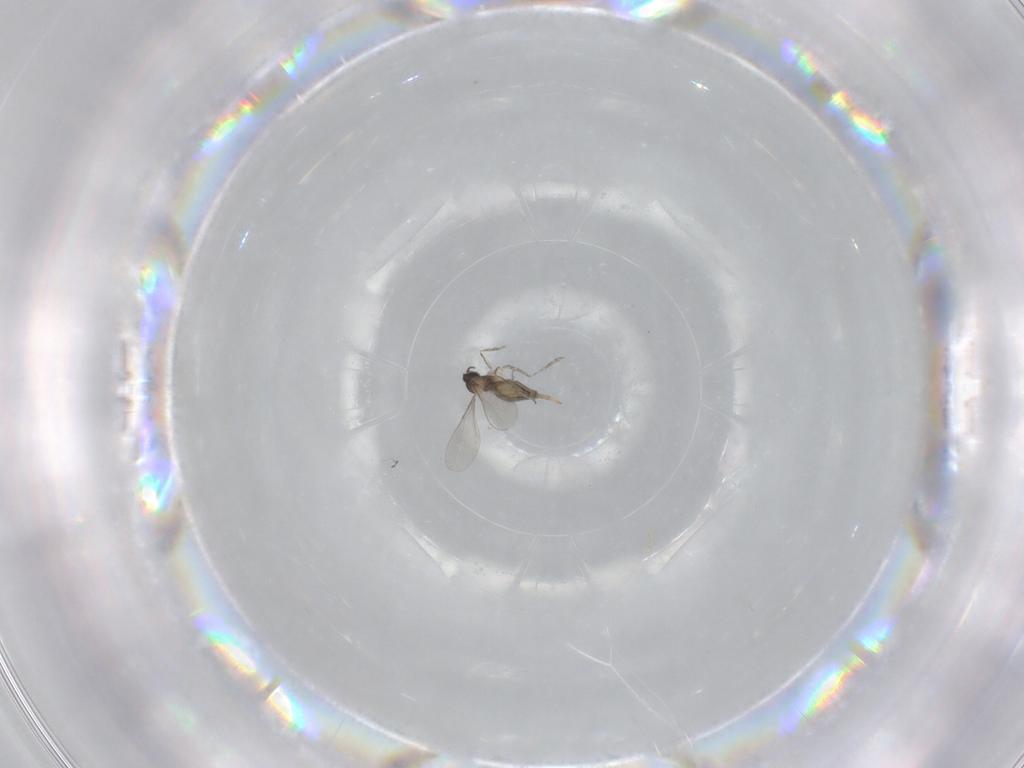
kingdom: Animalia
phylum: Arthropoda
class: Insecta
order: Diptera
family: Cecidomyiidae
